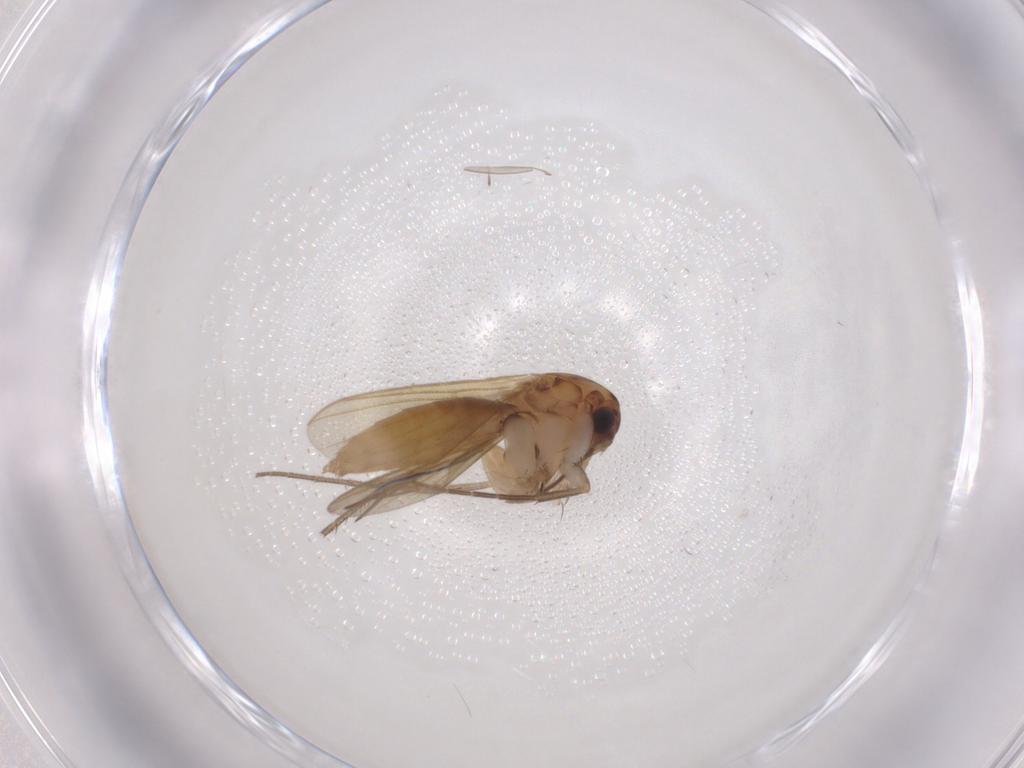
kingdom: Animalia
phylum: Arthropoda
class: Insecta
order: Diptera
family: Mycetophilidae
